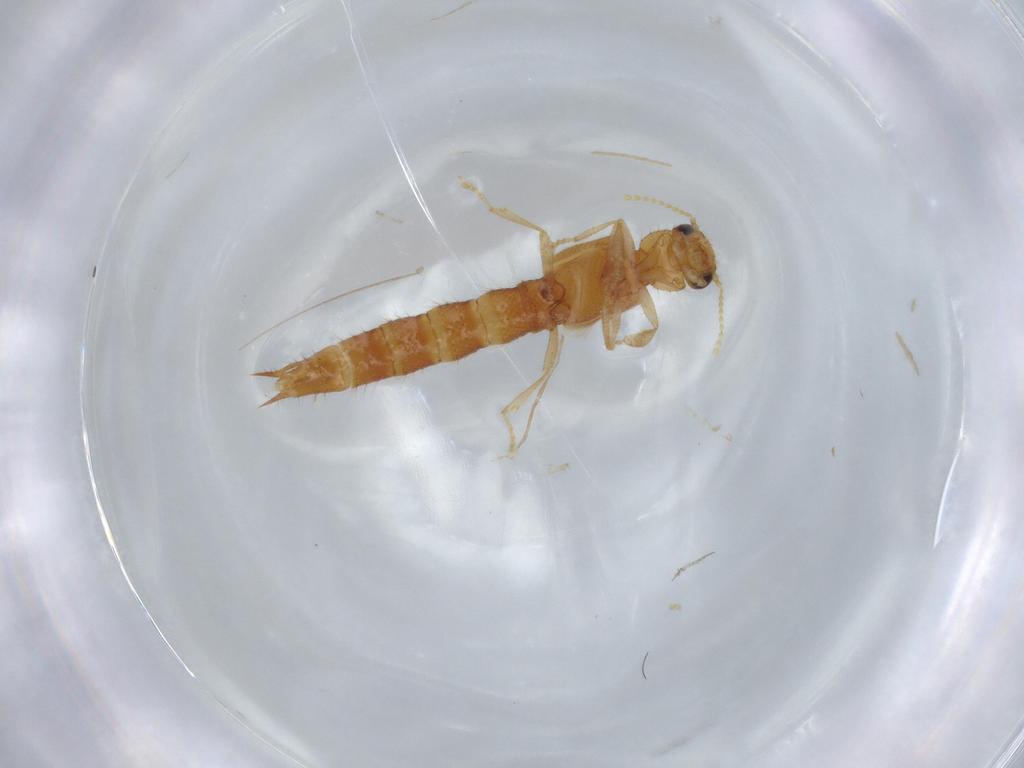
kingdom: Animalia
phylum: Arthropoda
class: Insecta
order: Coleoptera
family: Staphylinidae
